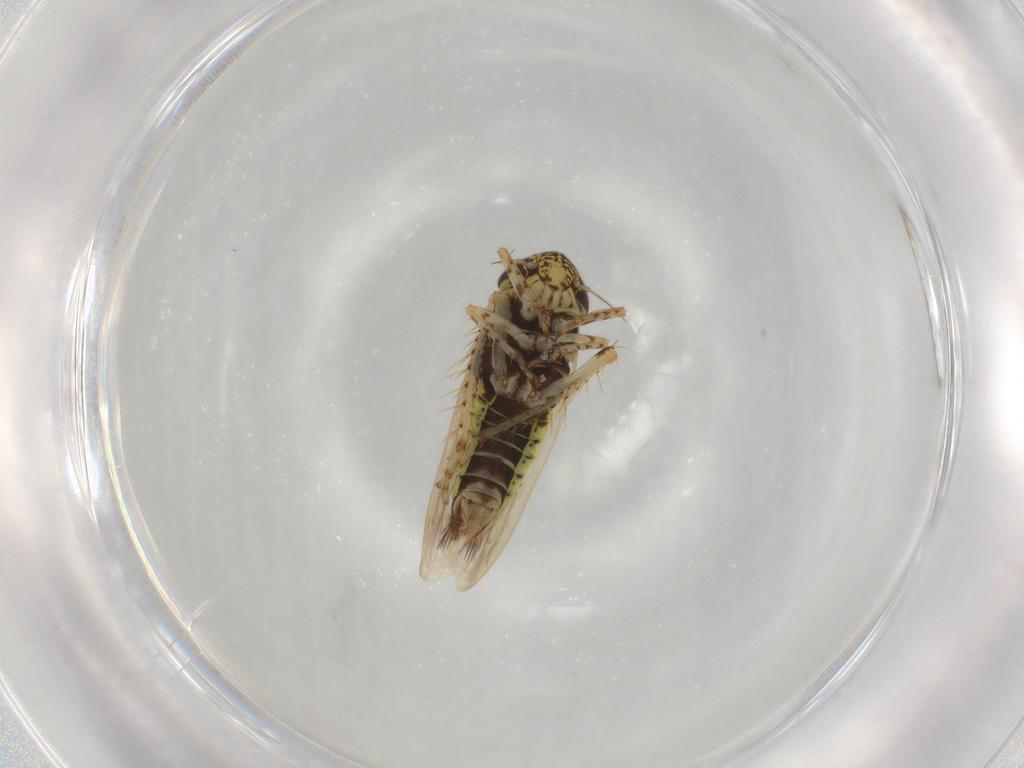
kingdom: Animalia
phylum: Arthropoda
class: Insecta
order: Hemiptera
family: Cicadellidae
